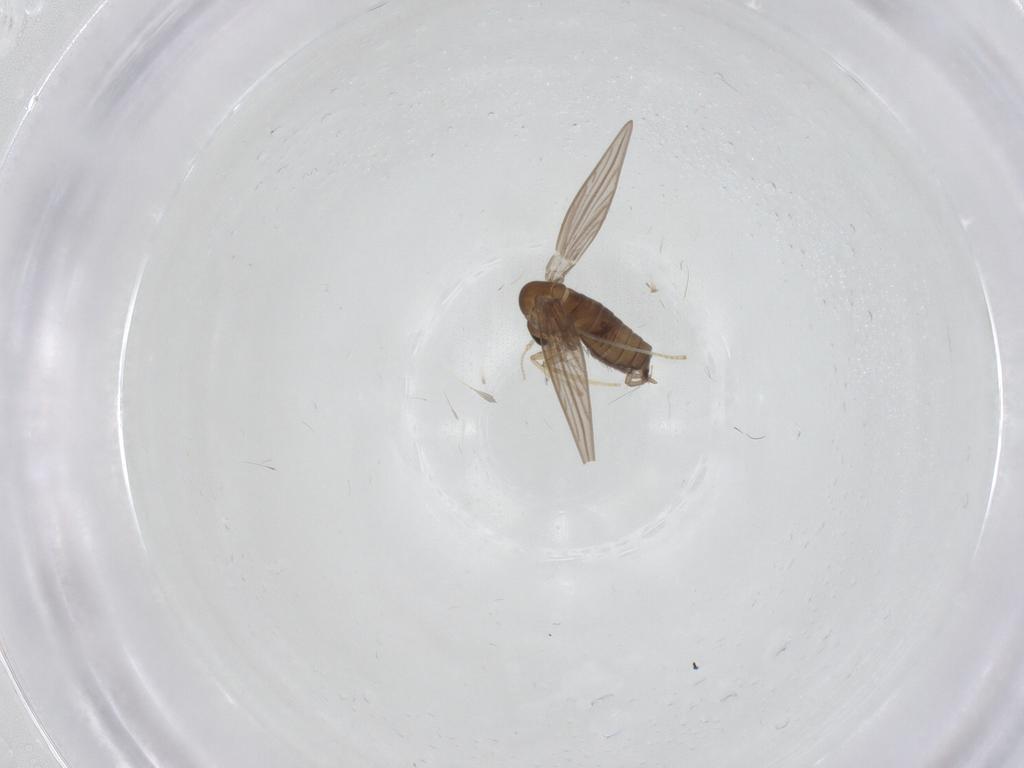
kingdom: Animalia
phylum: Arthropoda
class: Insecta
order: Diptera
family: Psychodidae
